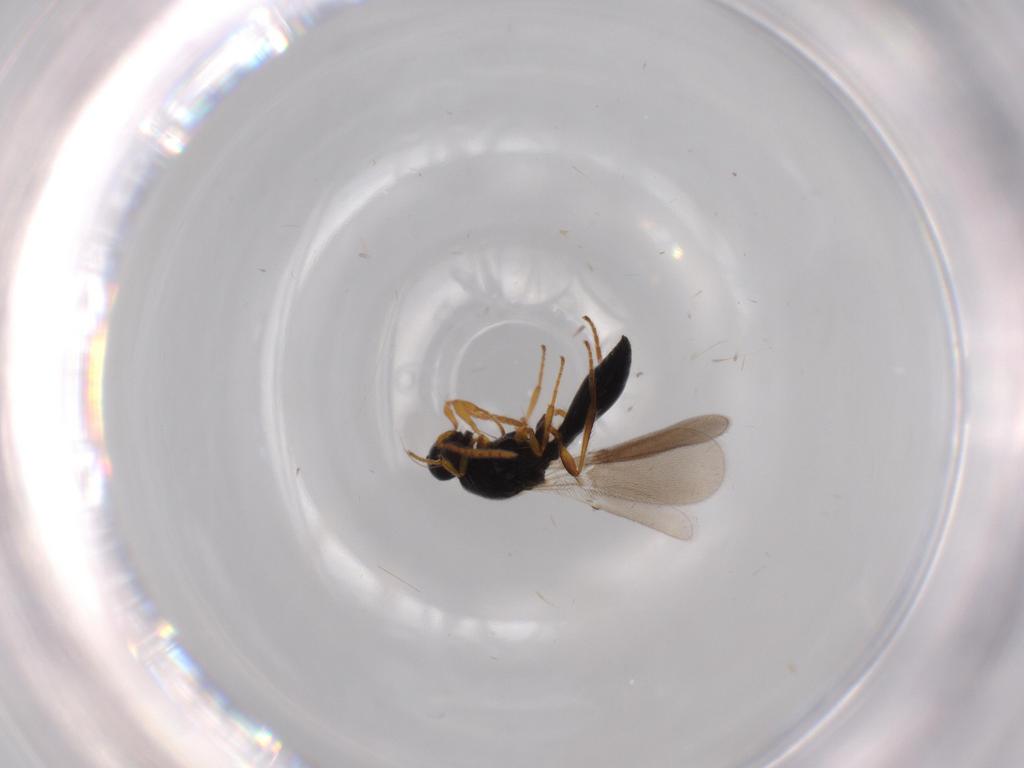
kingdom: Animalia
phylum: Arthropoda
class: Insecta
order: Hymenoptera
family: Platygastridae
